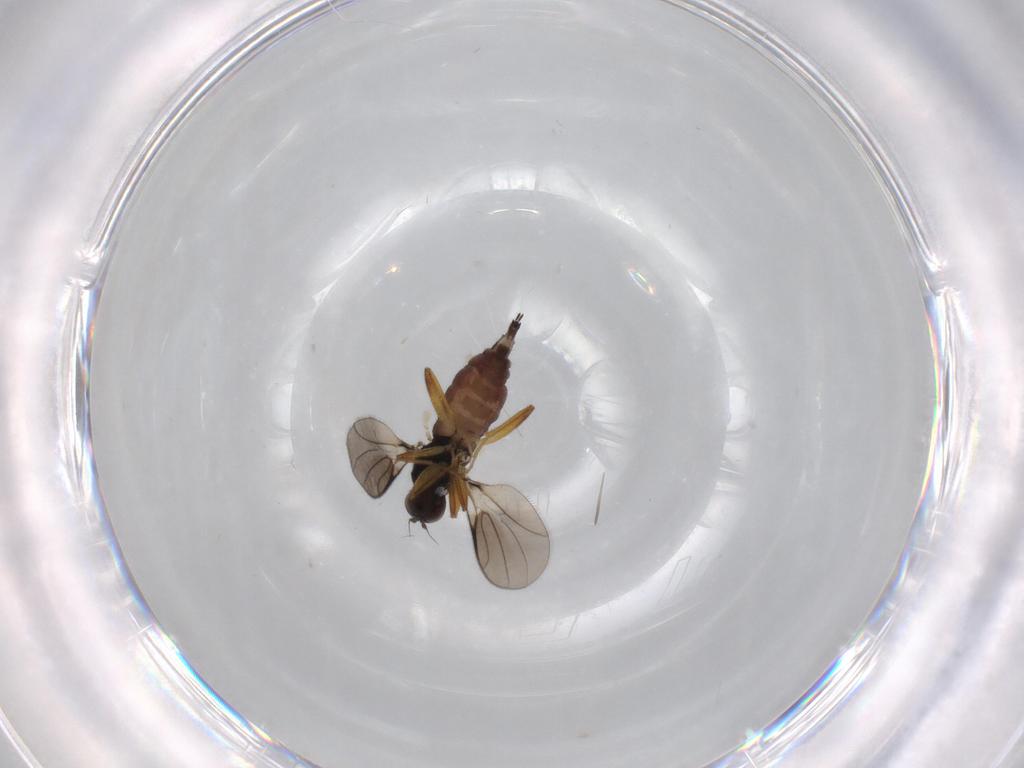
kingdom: Animalia
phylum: Arthropoda
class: Insecta
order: Diptera
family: Hybotidae
